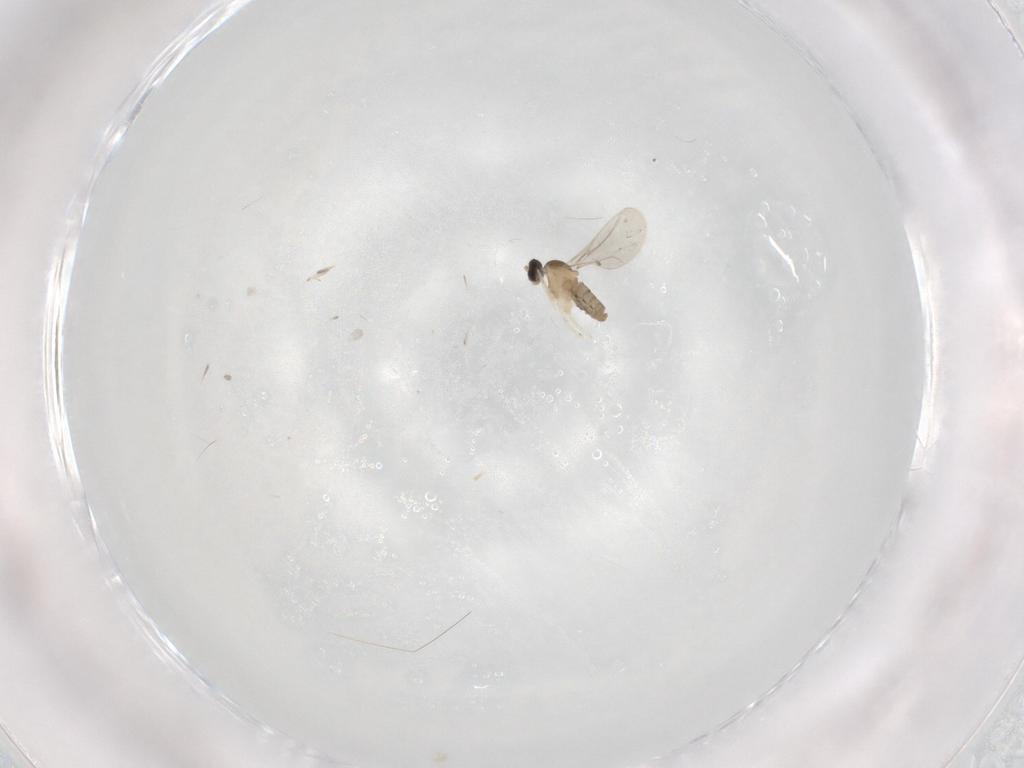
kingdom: Animalia
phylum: Arthropoda
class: Insecta
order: Diptera
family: Cecidomyiidae
